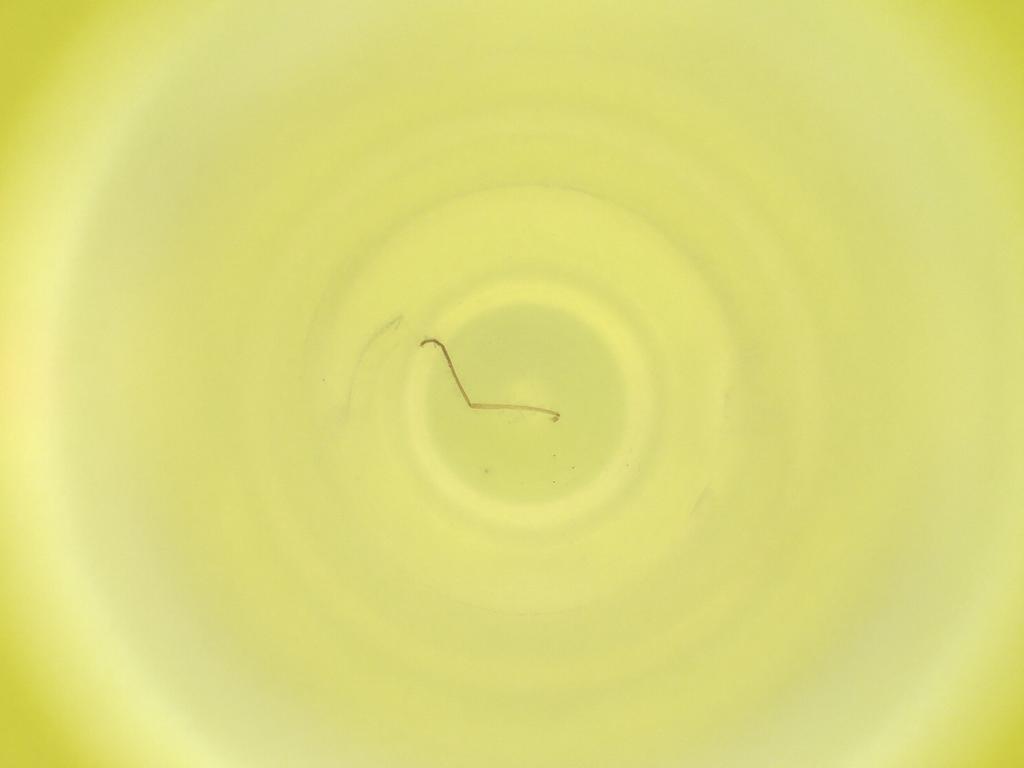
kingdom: Animalia
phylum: Arthropoda
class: Insecta
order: Diptera
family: Cecidomyiidae
